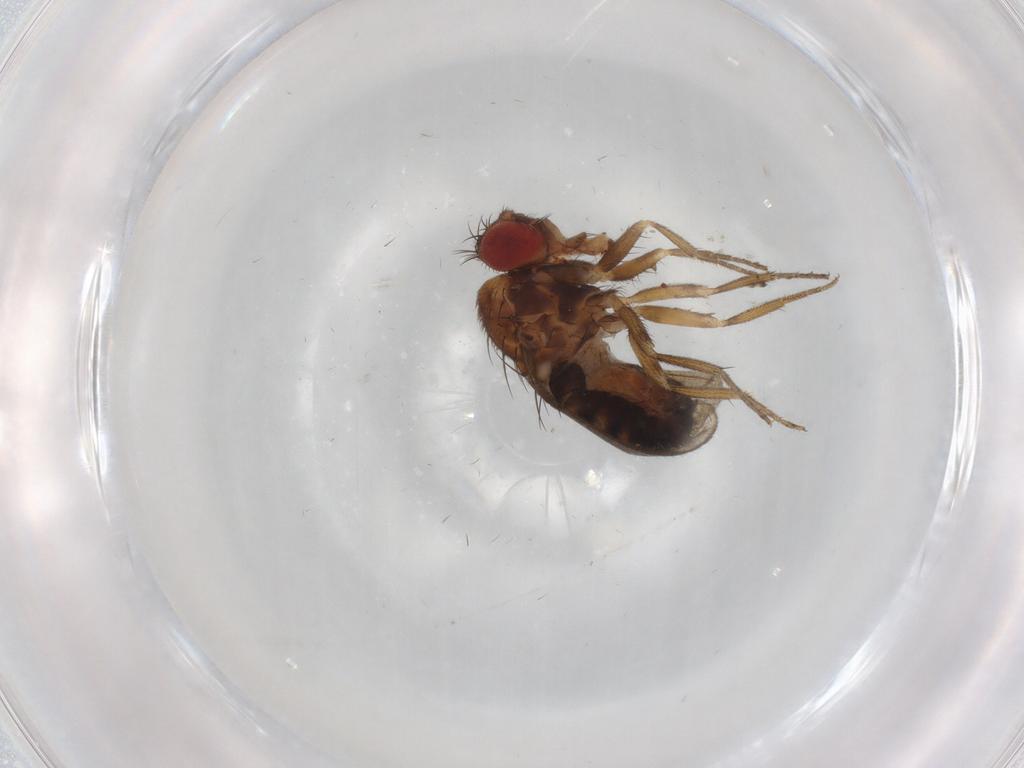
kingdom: Animalia
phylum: Arthropoda
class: Insecta
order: Diptera
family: Drosophilidae
